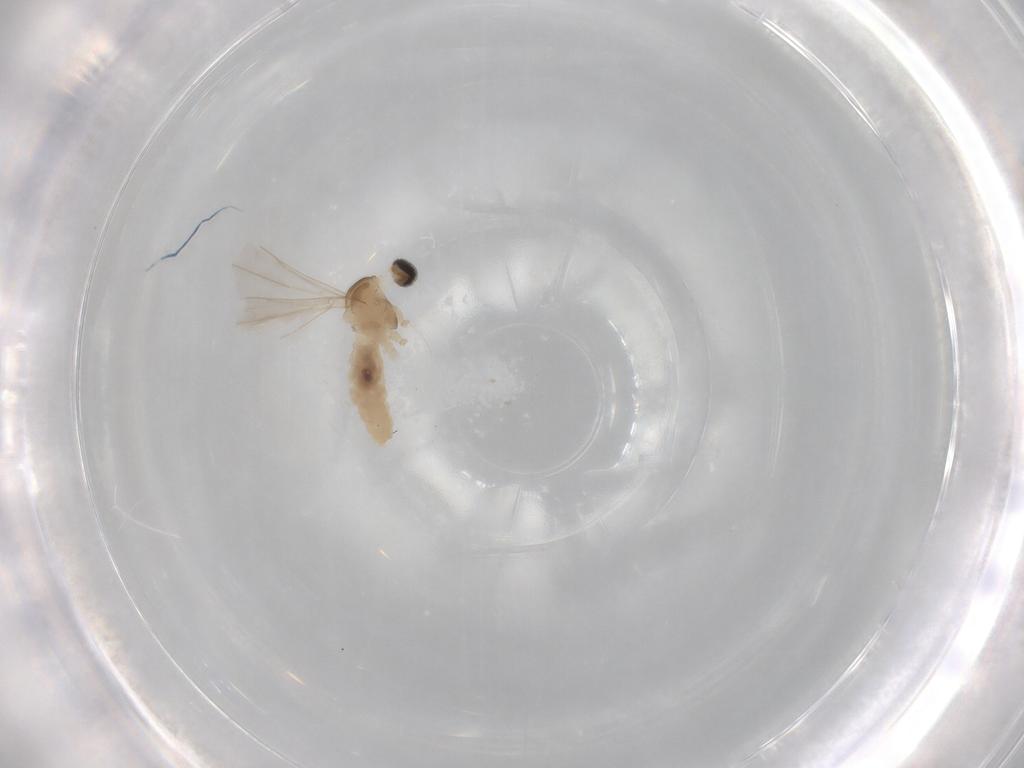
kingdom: Animalia
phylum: Arthropoda
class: Insecta
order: Diptera
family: Cecidomyiidae
